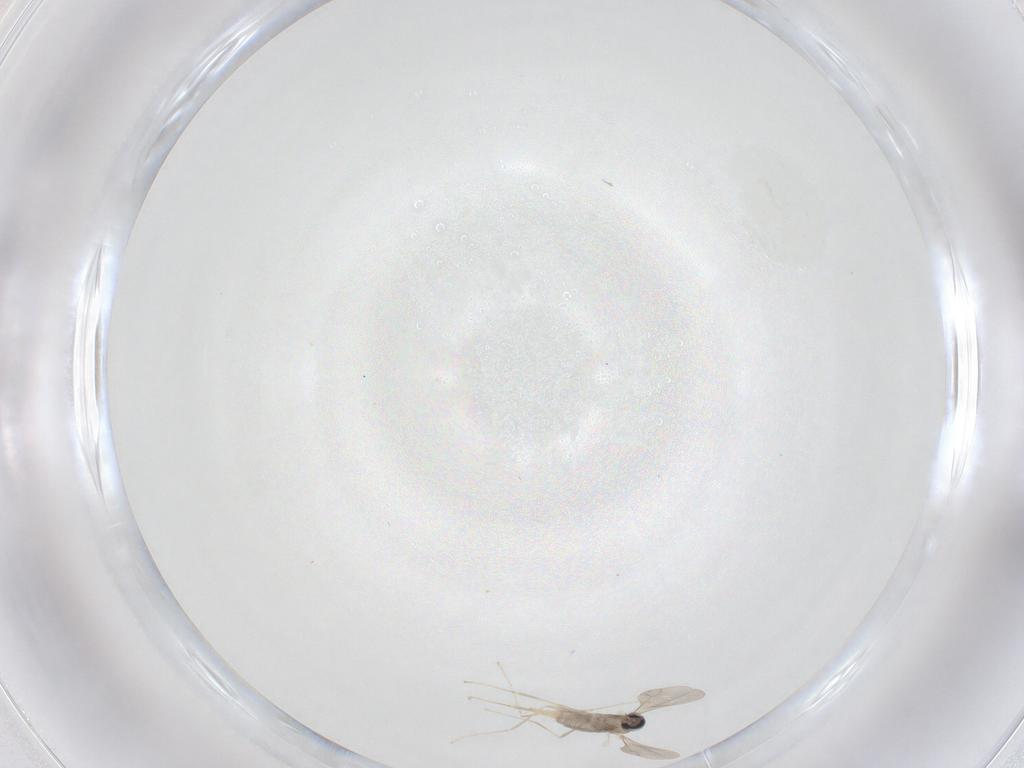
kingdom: Animalia
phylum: Arthropoda
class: Insecta
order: Diptera
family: Cecidomyiidae
